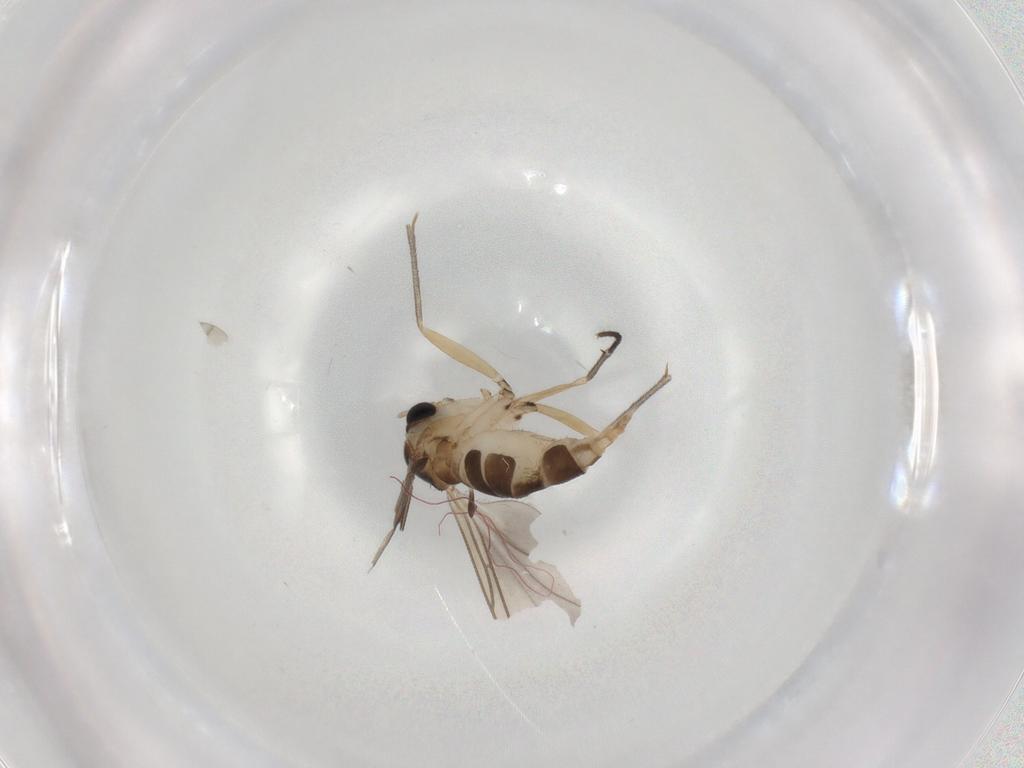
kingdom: Animalia
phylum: Arthropoda
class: Insecta
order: Diptera
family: Sciaridae
